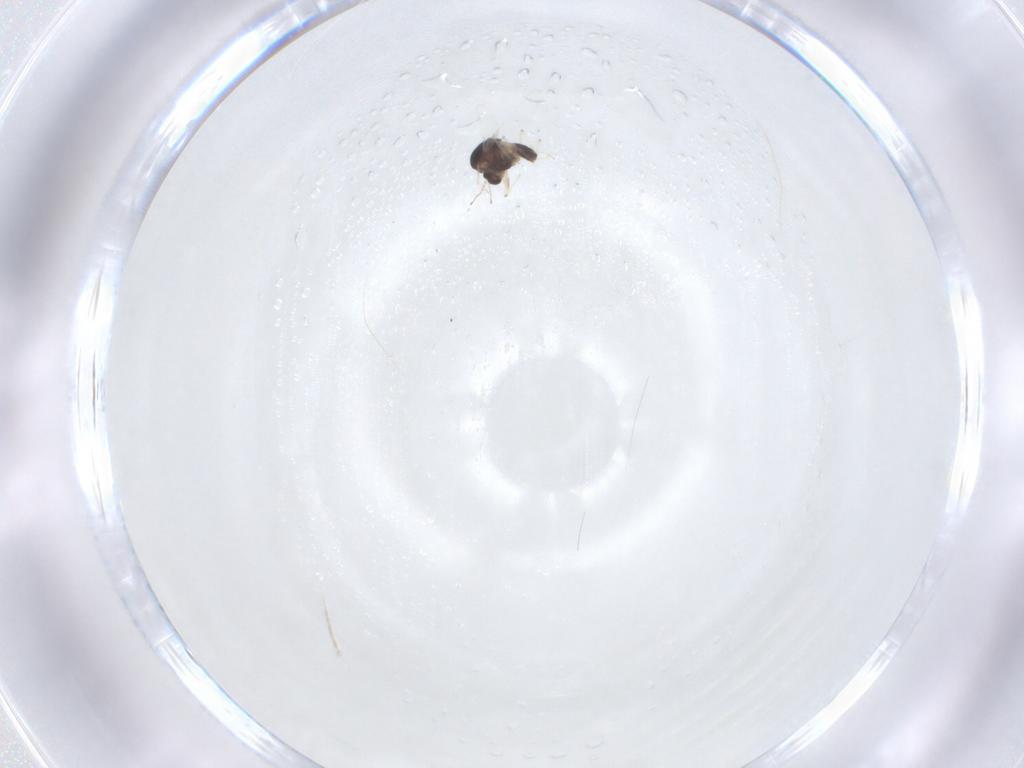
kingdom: Animalia
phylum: Arthropoda
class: Insecta
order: Diptera
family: Chironomidae
